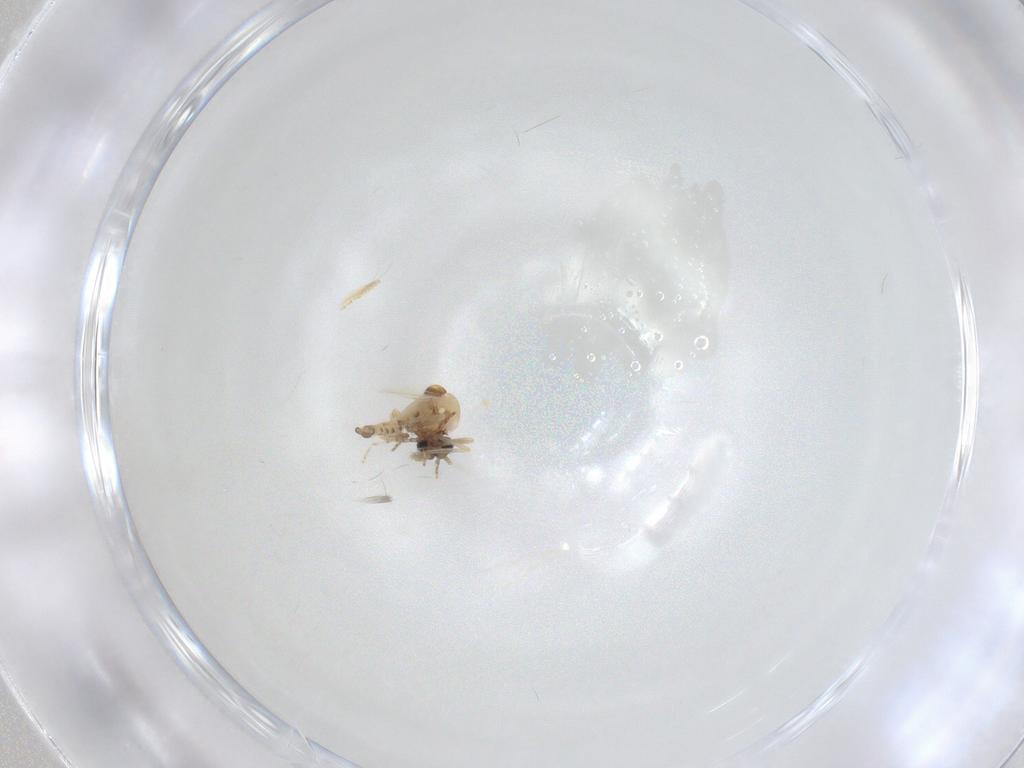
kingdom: Animalia
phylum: Arthropoda
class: Insecta
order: Diptera
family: Ceratopogonidae
